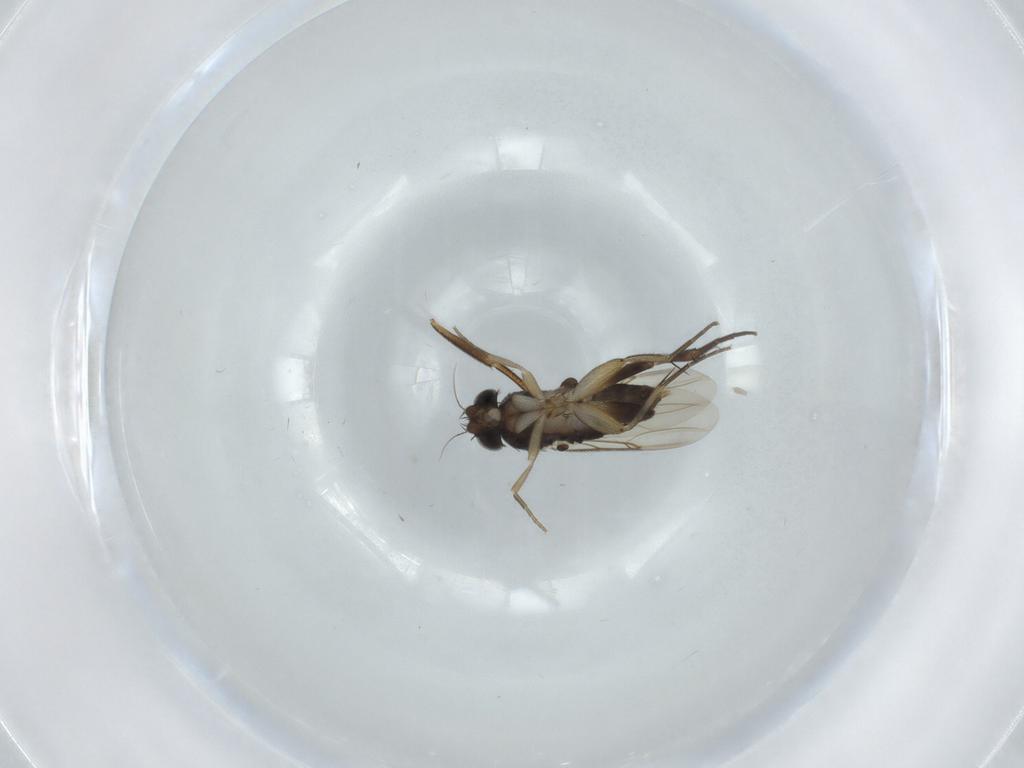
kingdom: Animalia
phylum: Arthropoda
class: Insecta
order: Diptera
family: Phoridae
